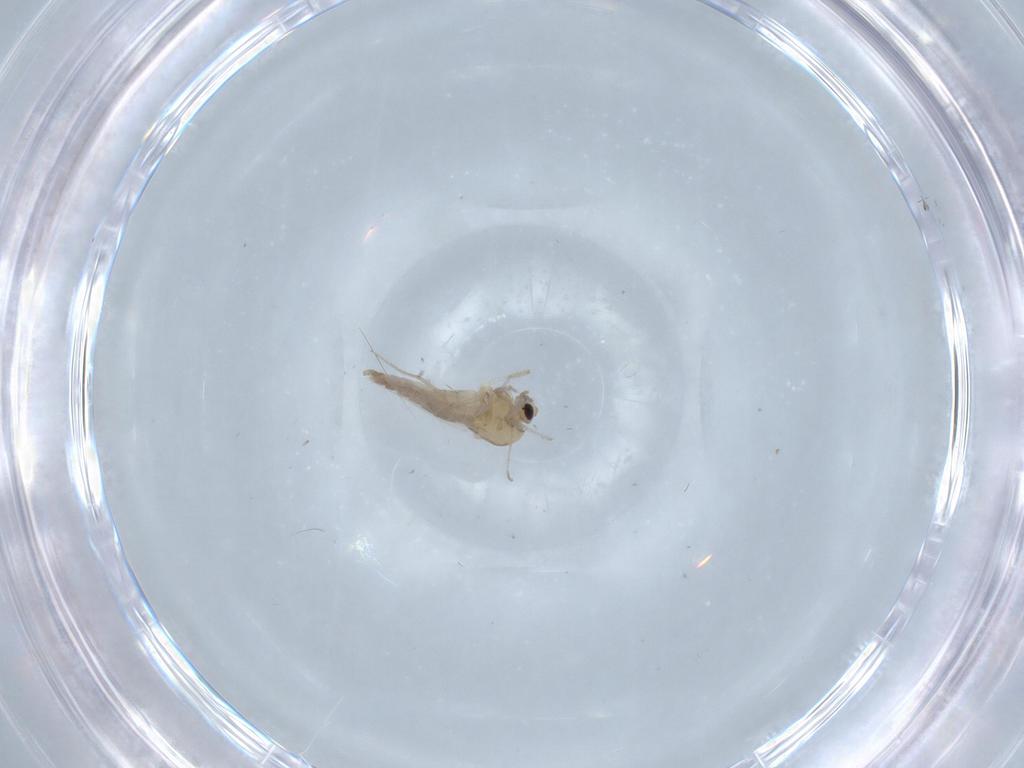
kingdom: Animalia
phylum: Arthropoda
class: Insecta
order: Diptera
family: Chironomidae
